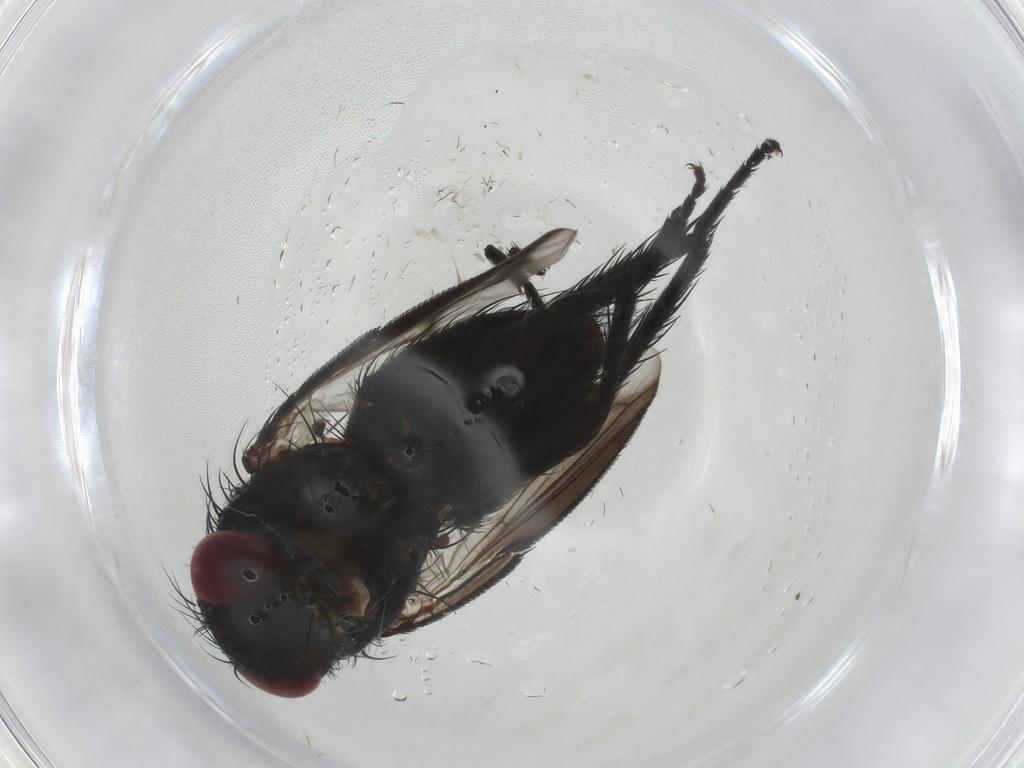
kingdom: Animalia
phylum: Arthropoda
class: Insecta
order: Diptera
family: Tachinidae
